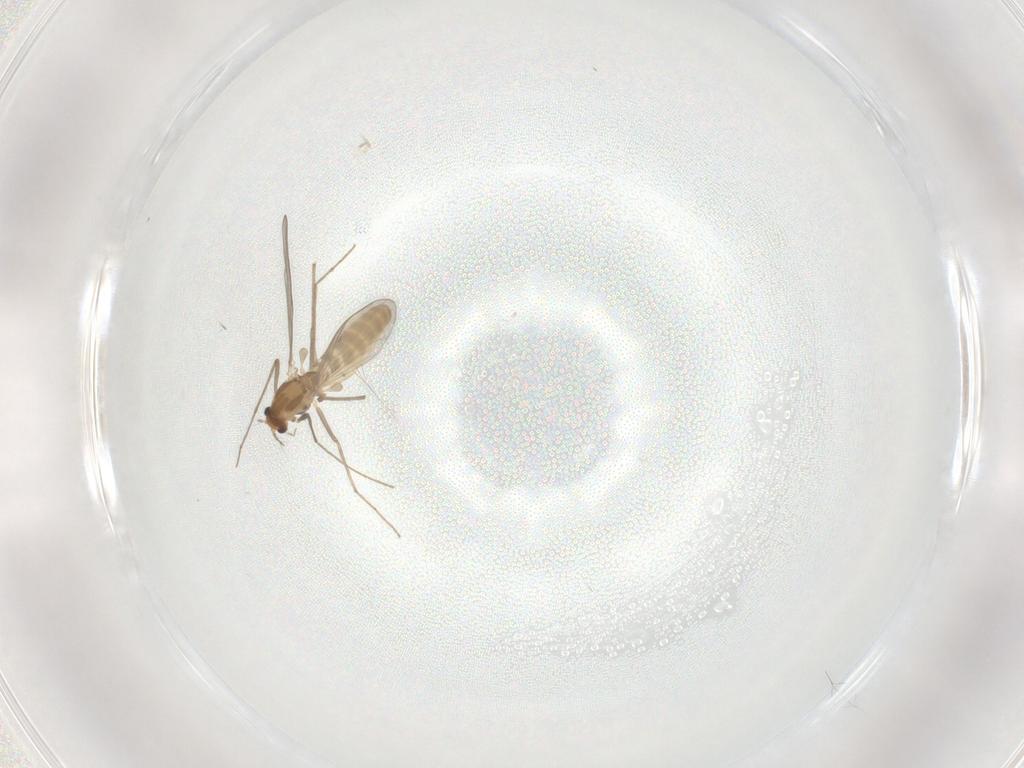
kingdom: Animalia
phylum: Arthropoda
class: Insecta
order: Diptera
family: Chironomidae
